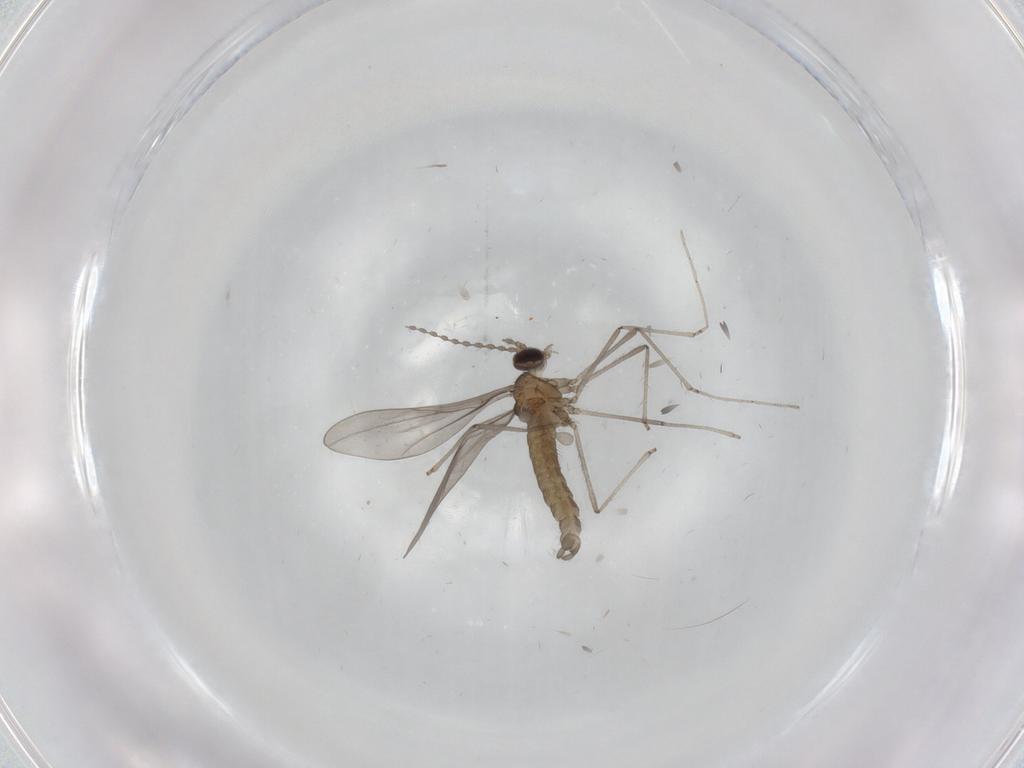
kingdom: Animalia
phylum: Arthropoda
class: Insecta
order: Diptera
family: Cecidomyiidae
